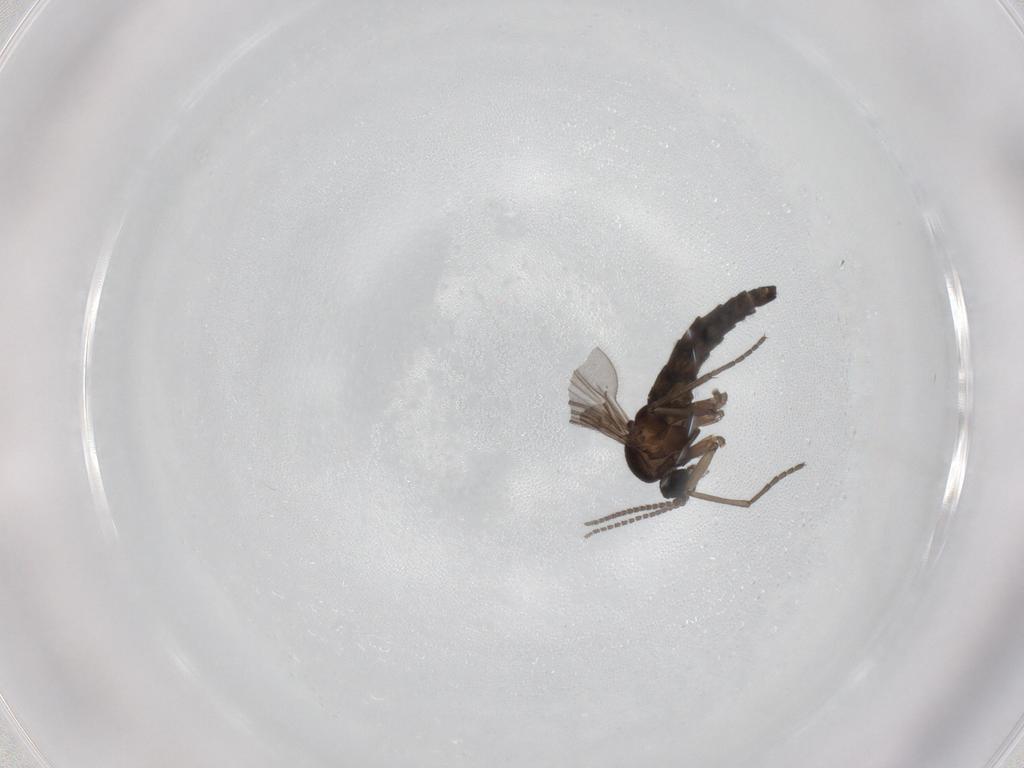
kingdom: Animalia
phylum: Arthropoda
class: Insecta
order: Diptera
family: Sciaridae
